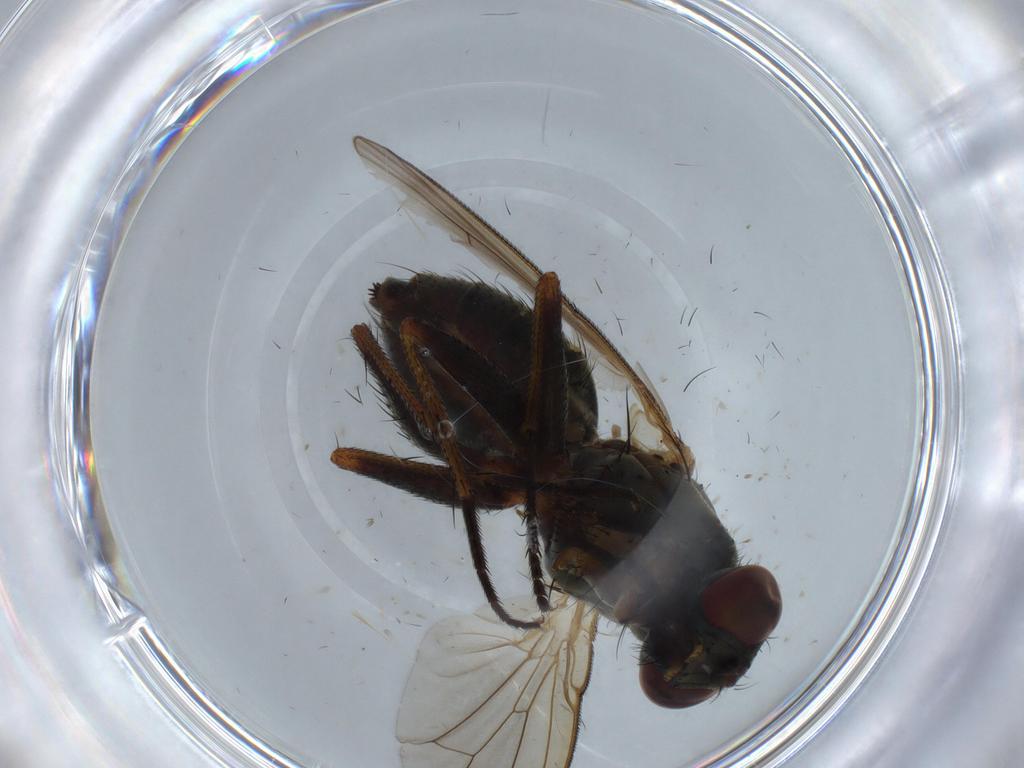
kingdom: Animalia
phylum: Arthropoda
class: Insecta
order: Diptera
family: Muscidae
